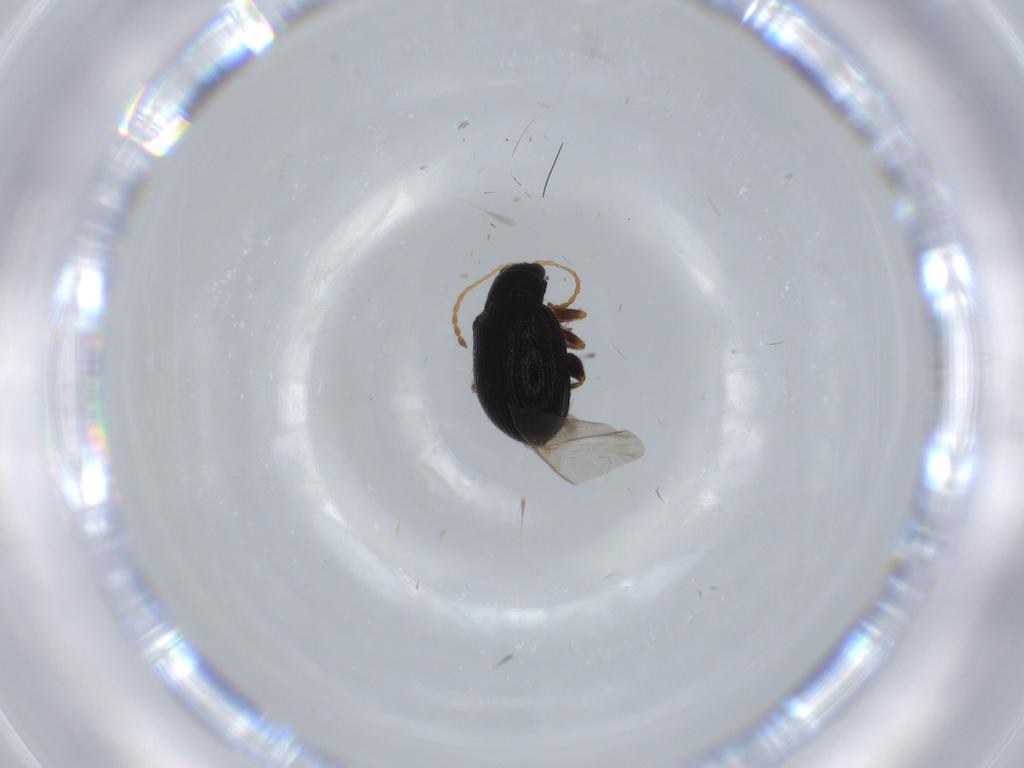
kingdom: Animalia
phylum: Arthropoda
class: Insecta
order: Coleoptera
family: Chrysomelidae
